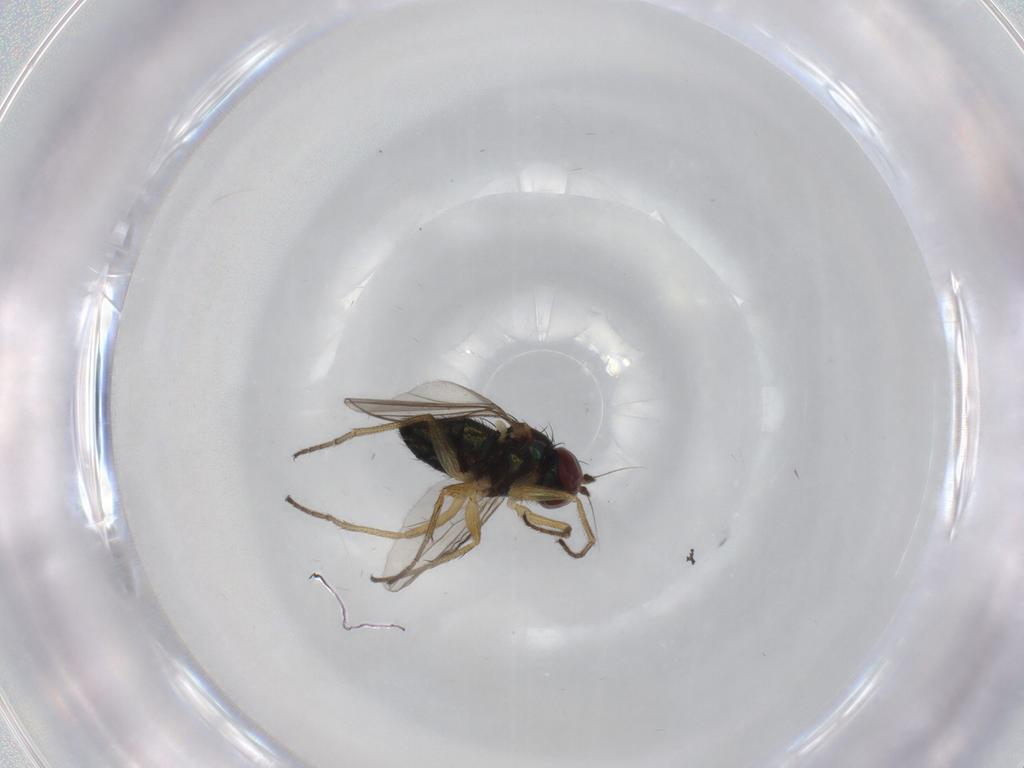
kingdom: Animalia
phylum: Arthropoda
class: Insecta
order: Diptera
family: Dolichopodidae
